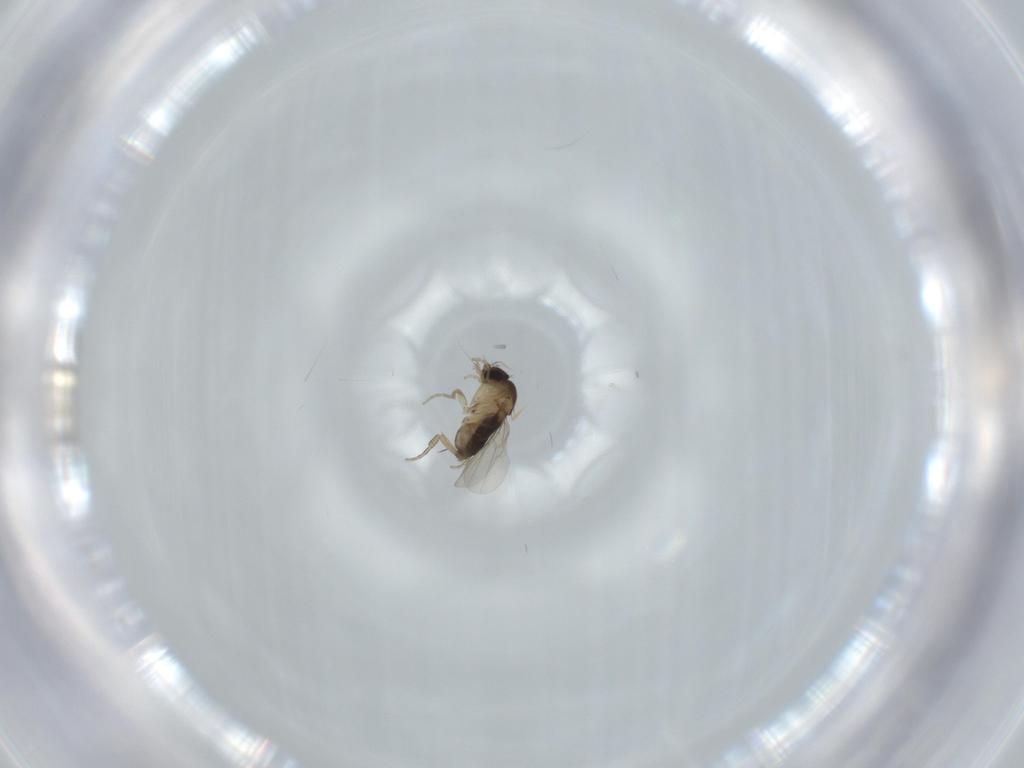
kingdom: Animalia
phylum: Arthropoda
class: Insecta
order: Diptera
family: Phoridae
